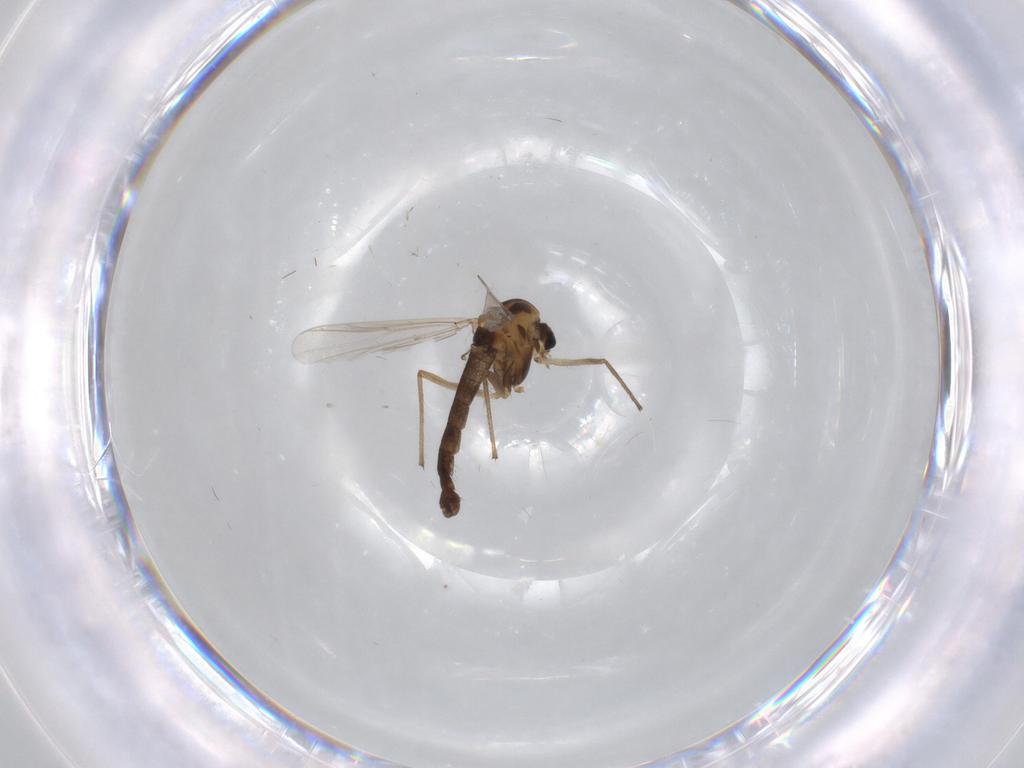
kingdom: Animalia
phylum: Arthropoda
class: Insecta
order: Diptera
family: Chironomidae
